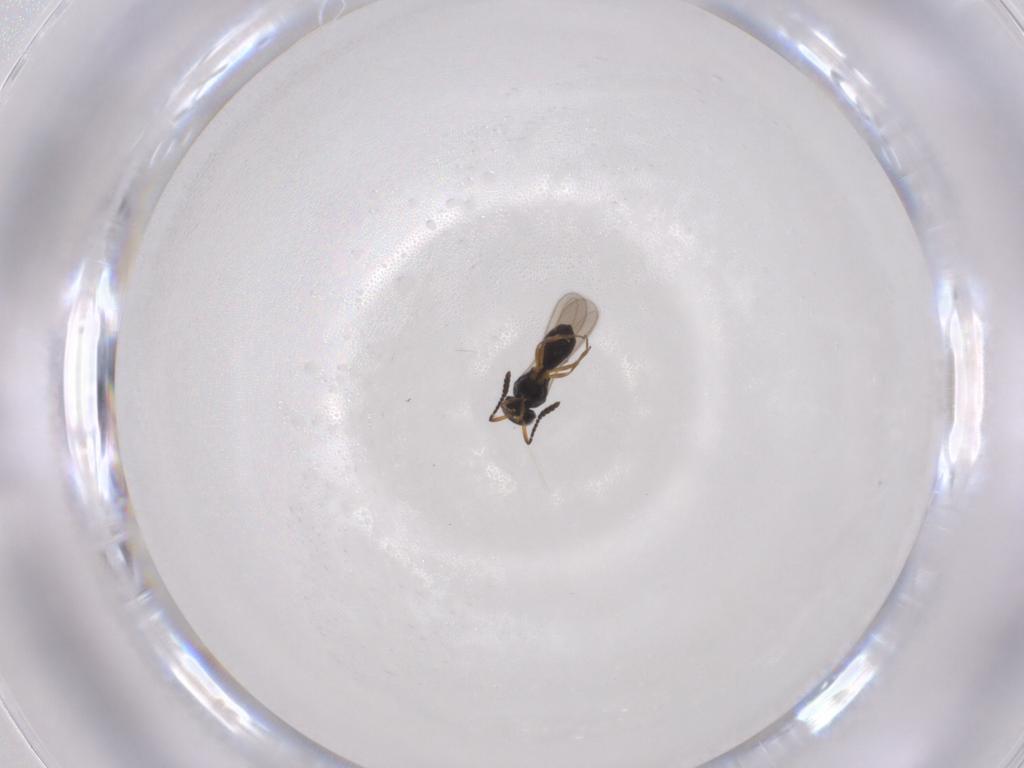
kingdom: Animalia
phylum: Arthropoda
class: Insecta
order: Hymenoptera
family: Scelionidae
